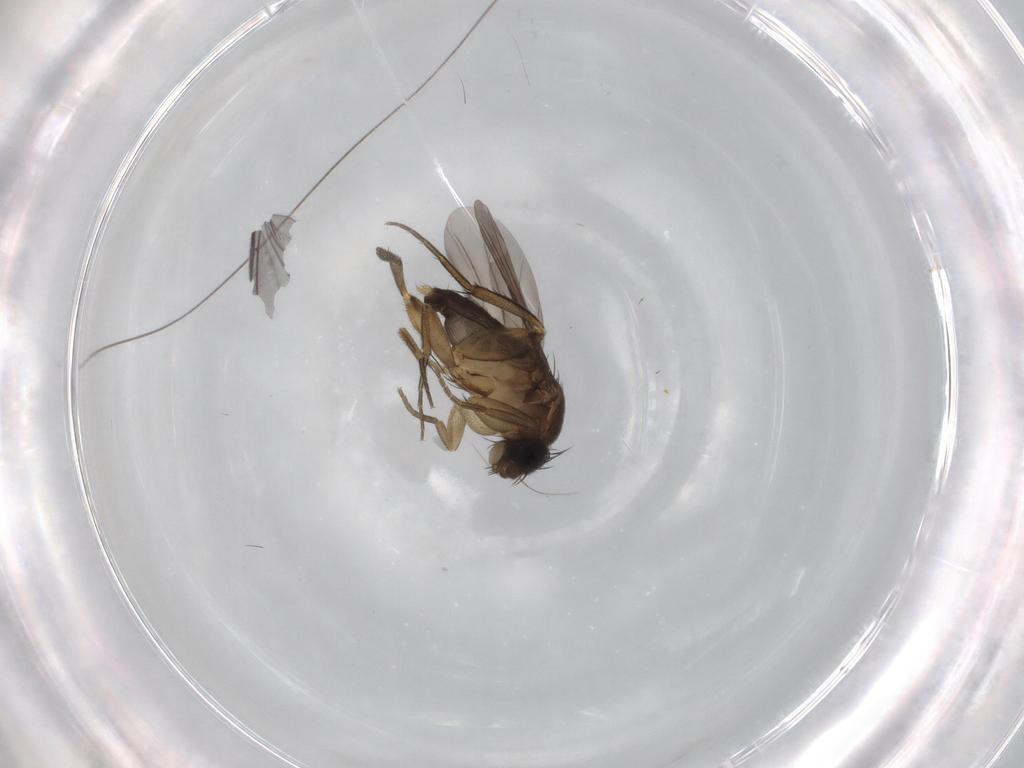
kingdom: Animalia
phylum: Arthropoda
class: Insecta
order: Diptera
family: Phoridae
